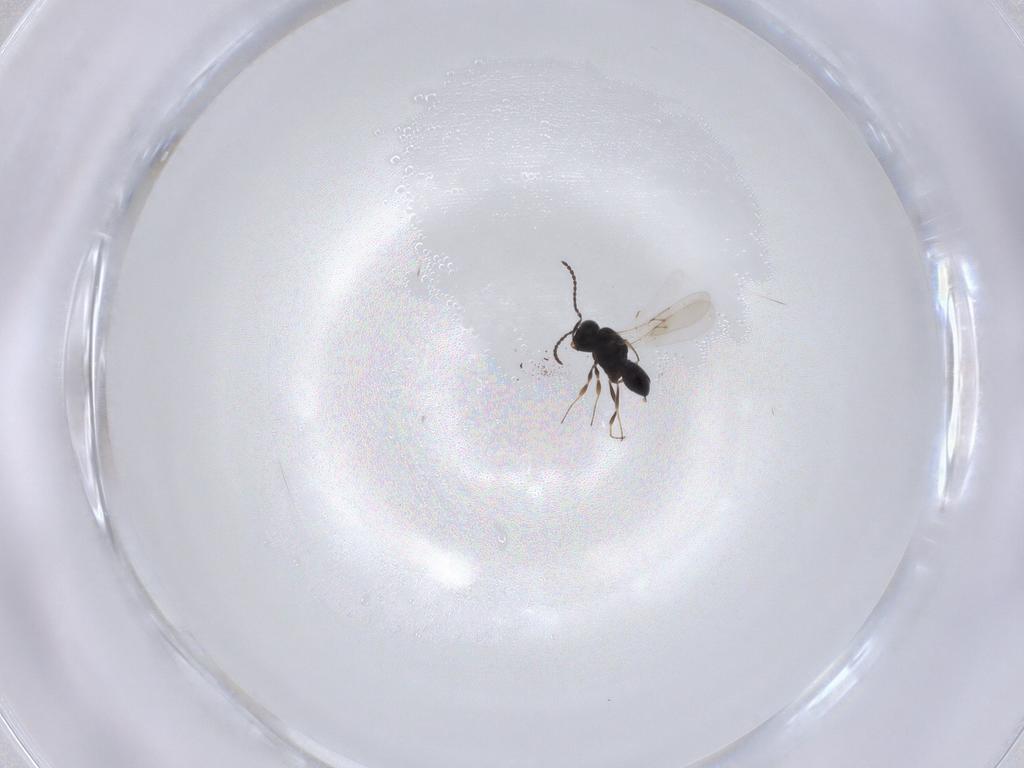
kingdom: Animalia
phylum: Arthropoda
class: Insecta
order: Hymenoptera
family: Scelionidae
